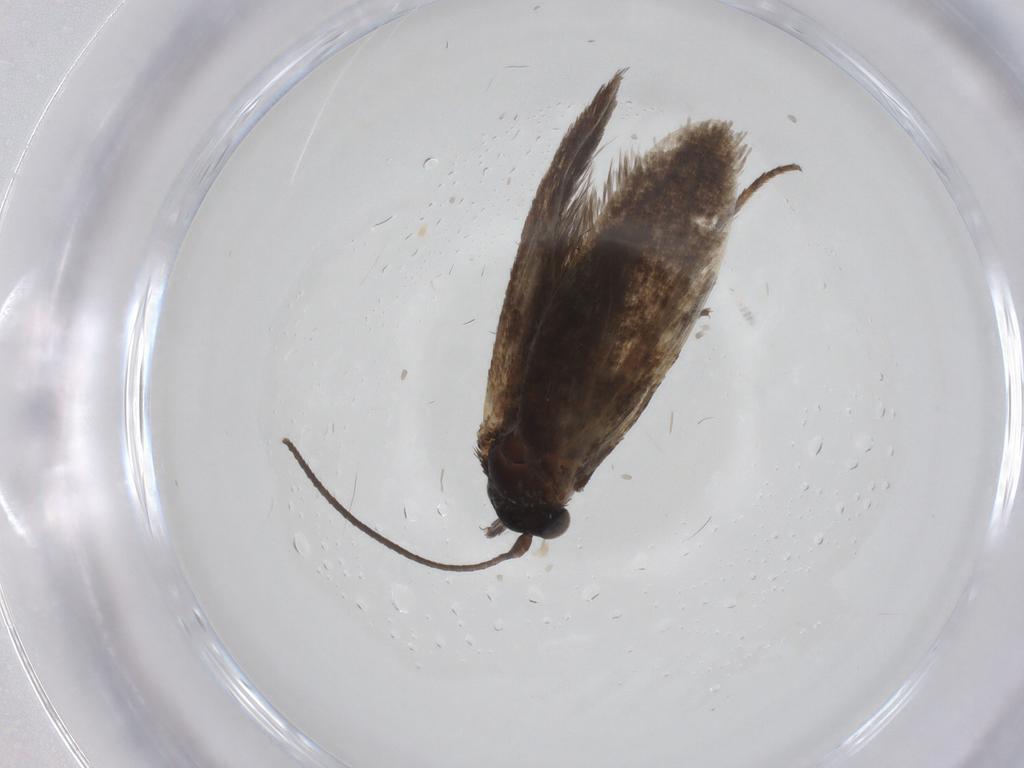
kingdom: Animalia
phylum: Arthropoda
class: Insecta
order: Lepidoptera
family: Adelidae
